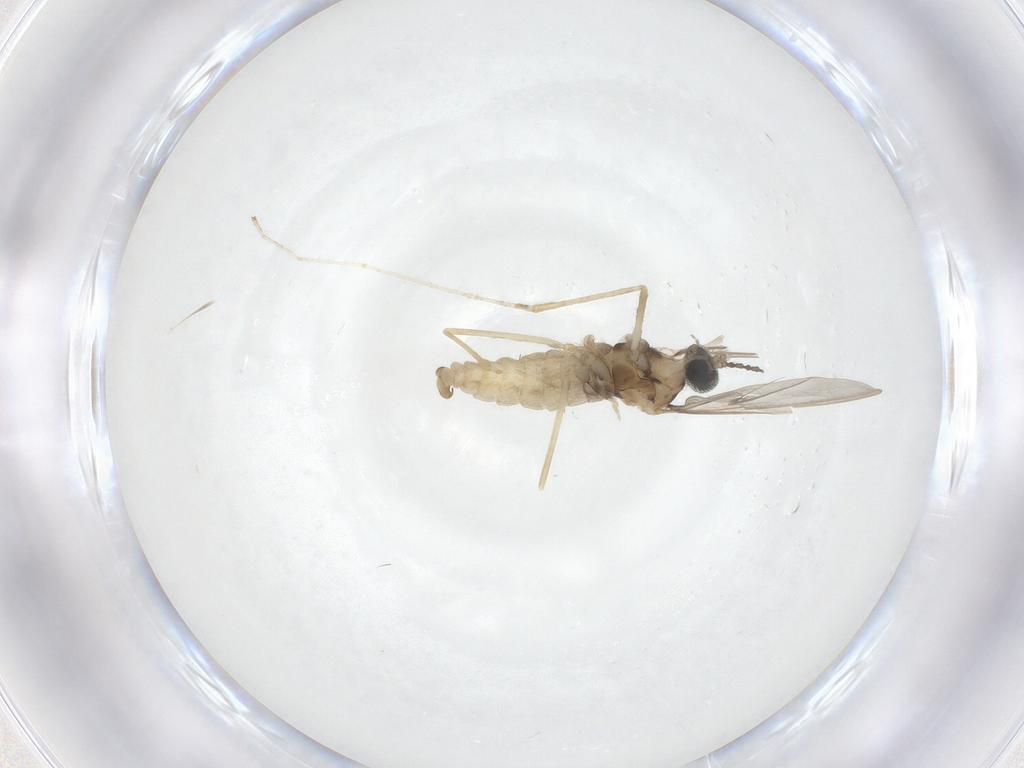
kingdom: Animalia
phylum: Arthropoda
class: Insecta
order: Diptera
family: Cecidomyiidae
